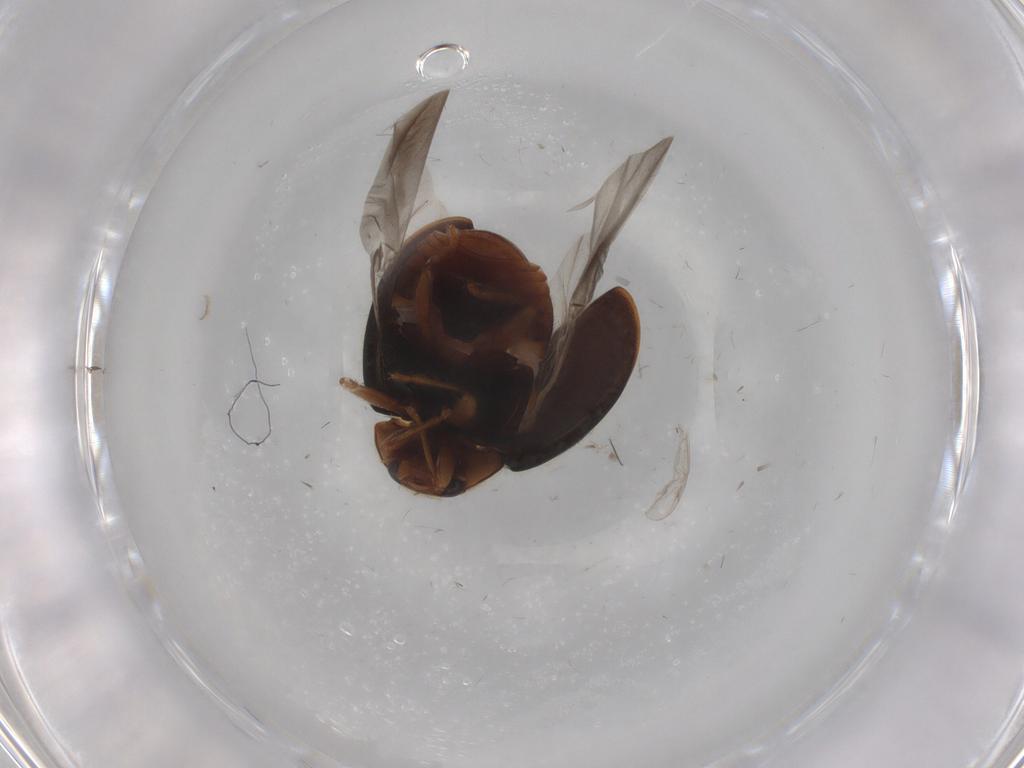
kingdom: Animalia
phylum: Arthropoda
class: Insecta
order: Coleoptera
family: Coccinellidae
